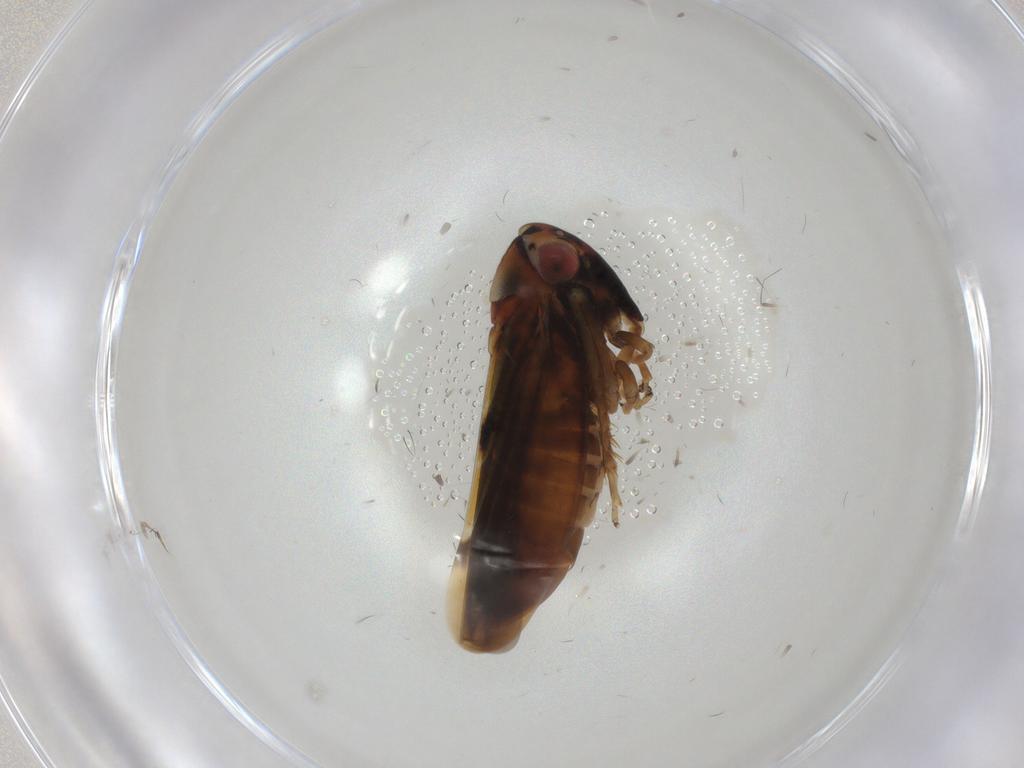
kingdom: Animalia
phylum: Arthropoda
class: Insecta
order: Hemiptera
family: Cicadellidae
